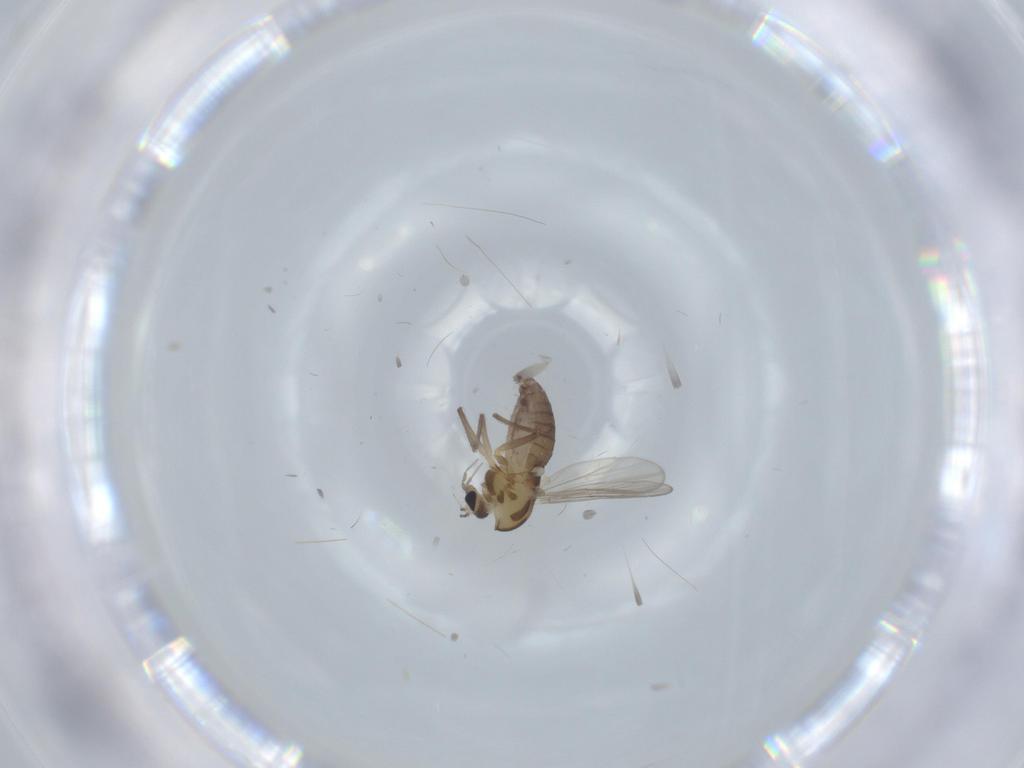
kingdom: Animalia
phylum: Arthropoda
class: Insecta
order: Diptera
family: Chironomidae
